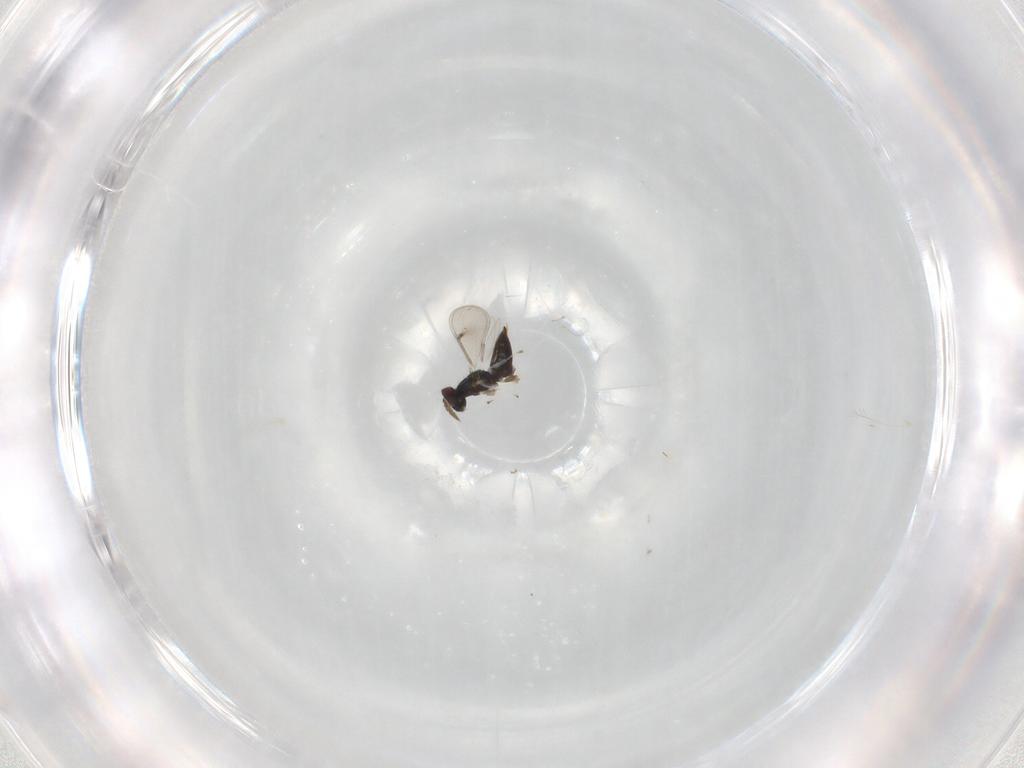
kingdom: Animalia
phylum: Arthropoda
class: Insecta
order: Hymenoptera
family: Eulophidae
